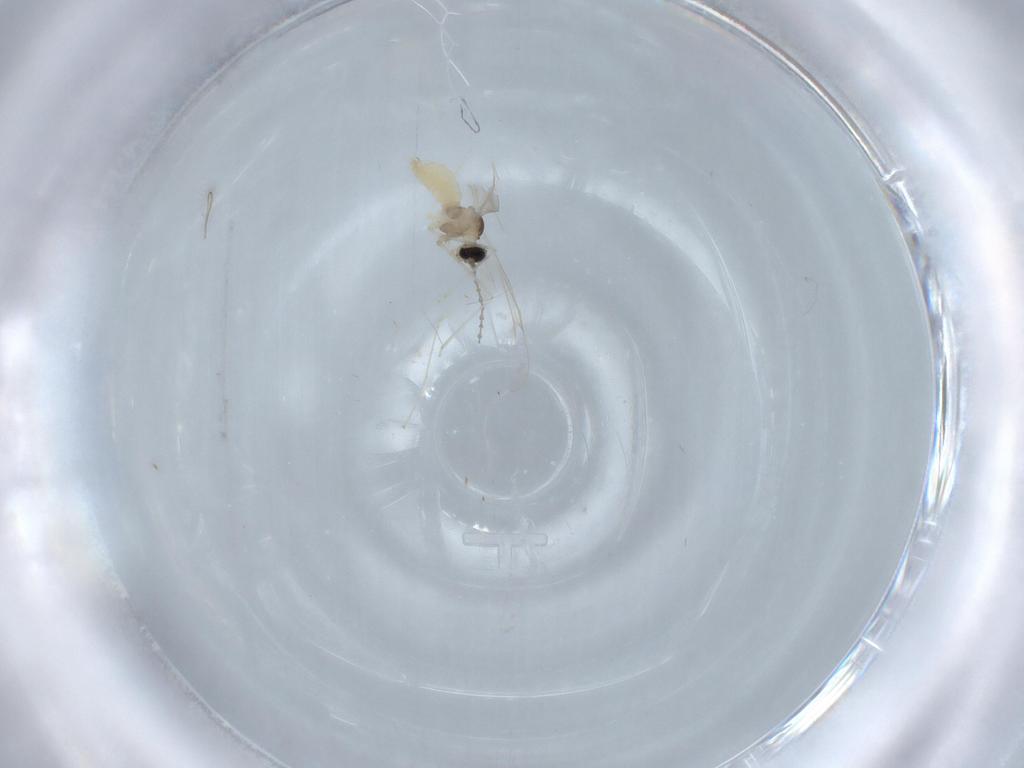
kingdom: Animalia
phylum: Arthropoda
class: Insecta
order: Diptera
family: Cecidomyiidae
